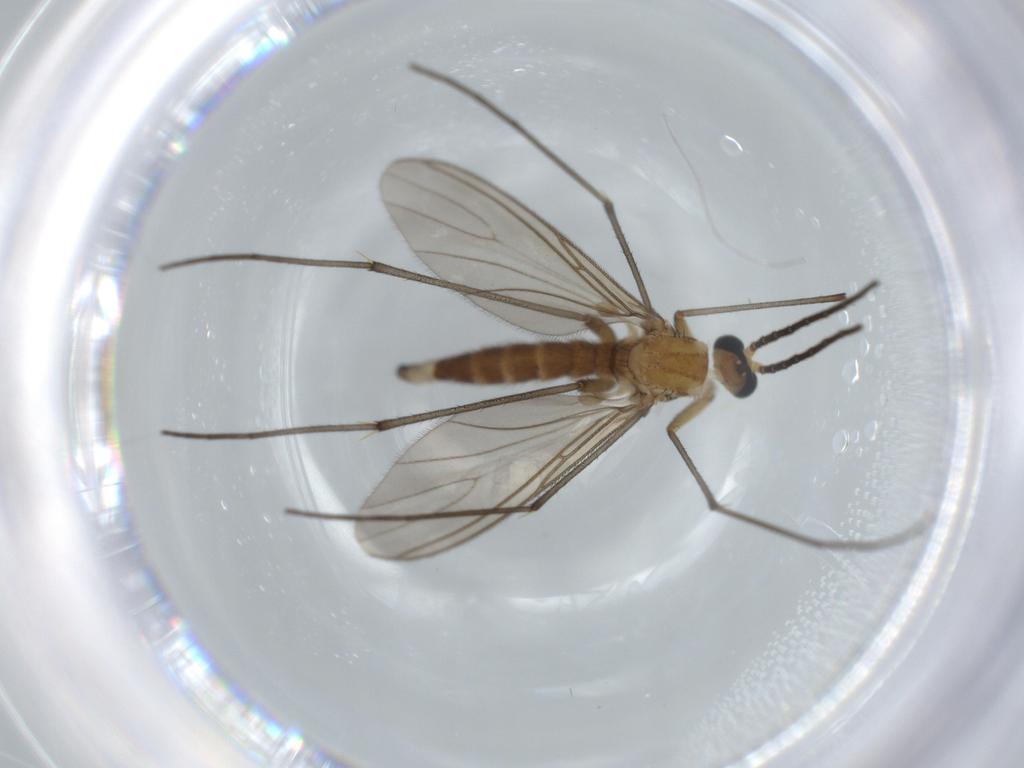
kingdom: Animalia
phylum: Arthropoda
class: Insecta
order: Diptera
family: Sciaridae
